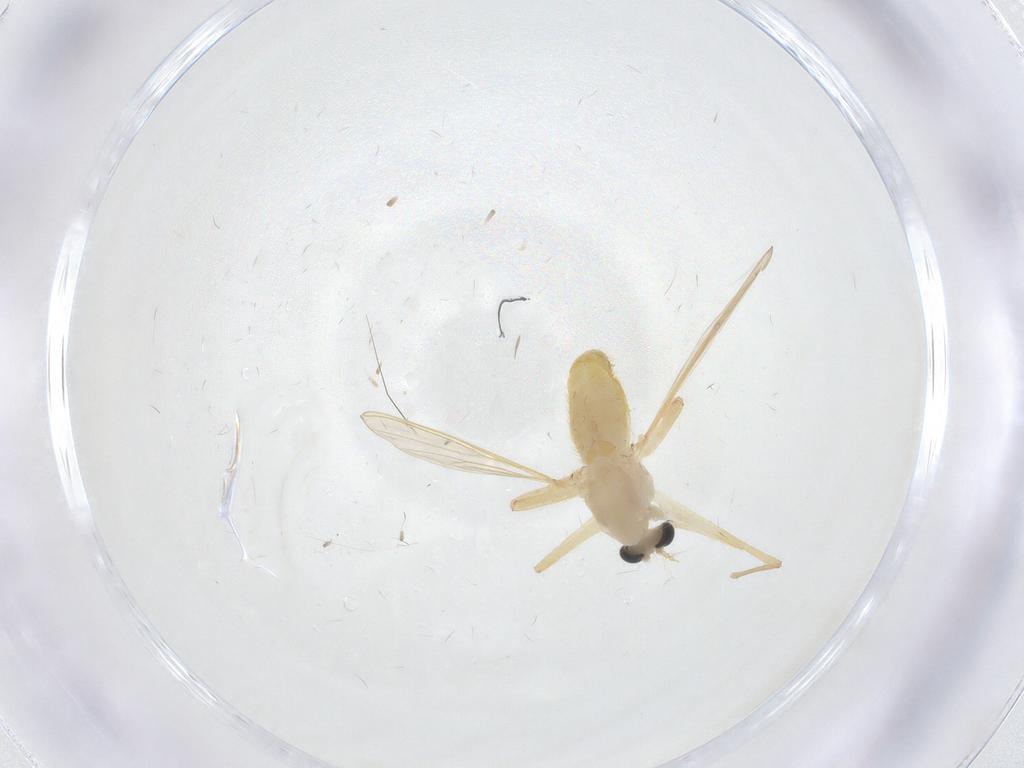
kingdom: Animalia
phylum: Arthropoda
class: Insecta
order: Diptera
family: Chironomidae
